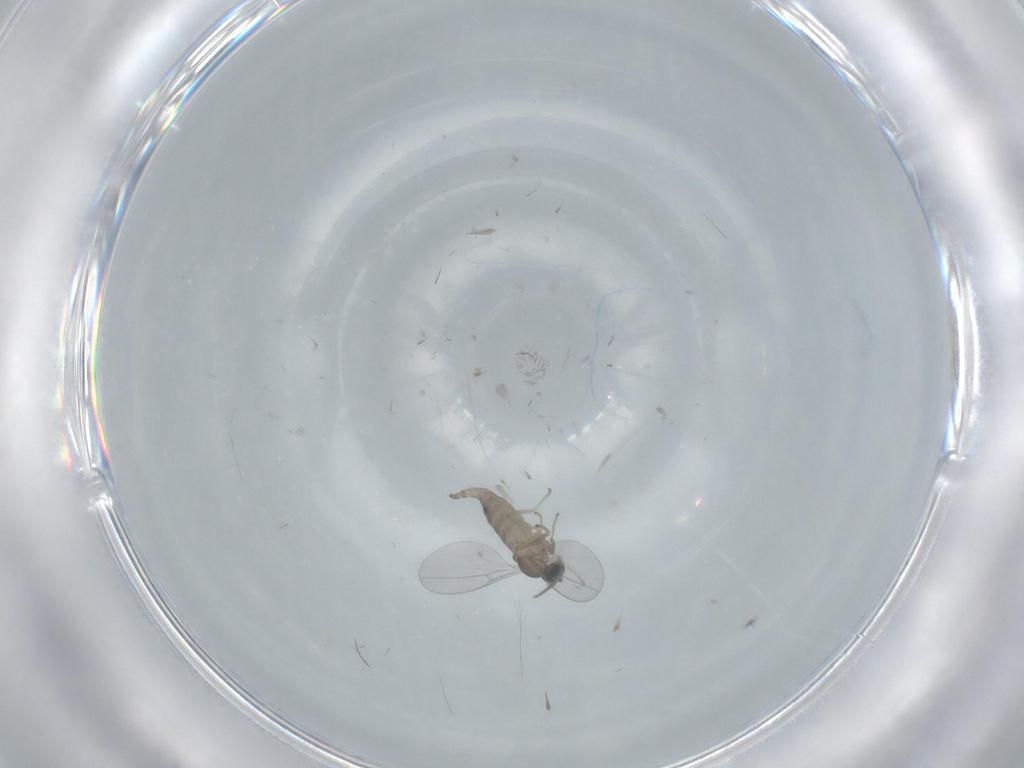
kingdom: Animalia
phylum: Arthropoda
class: Insecta
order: Diptera
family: Cecidomyiidae
